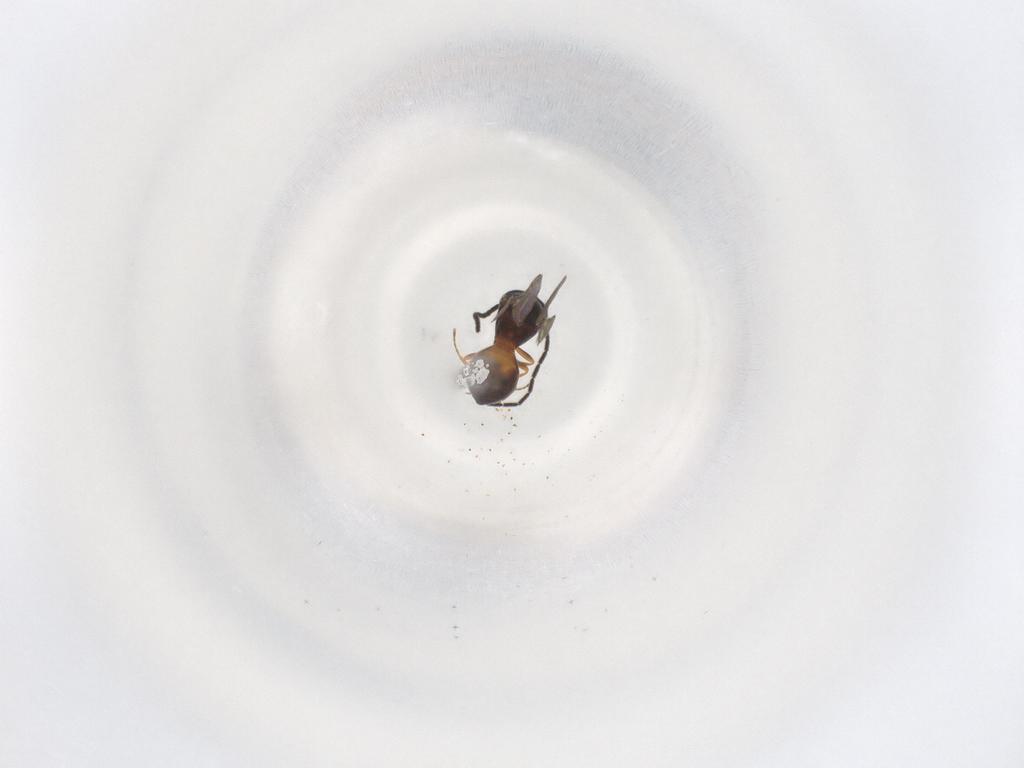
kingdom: Animalia
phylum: Arthropoda
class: Insecta
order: Hymenoptera
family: Scelionidae
